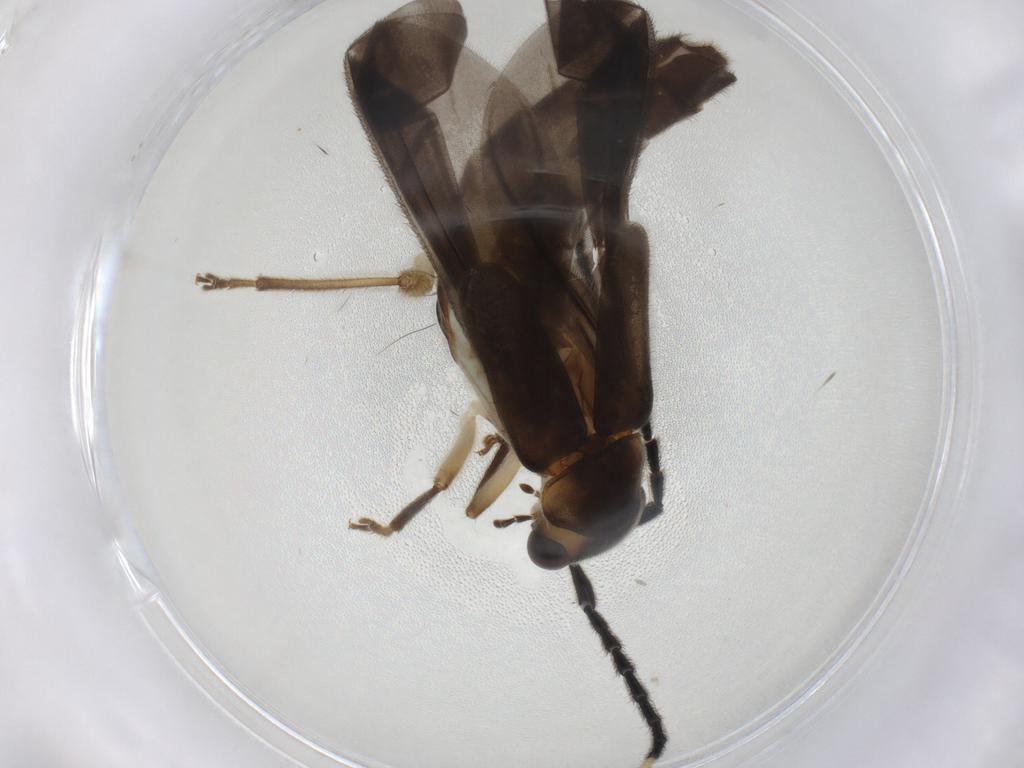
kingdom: Animalia
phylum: Arthropoda
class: Insecta
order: Coleoptera
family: Cantharidae
